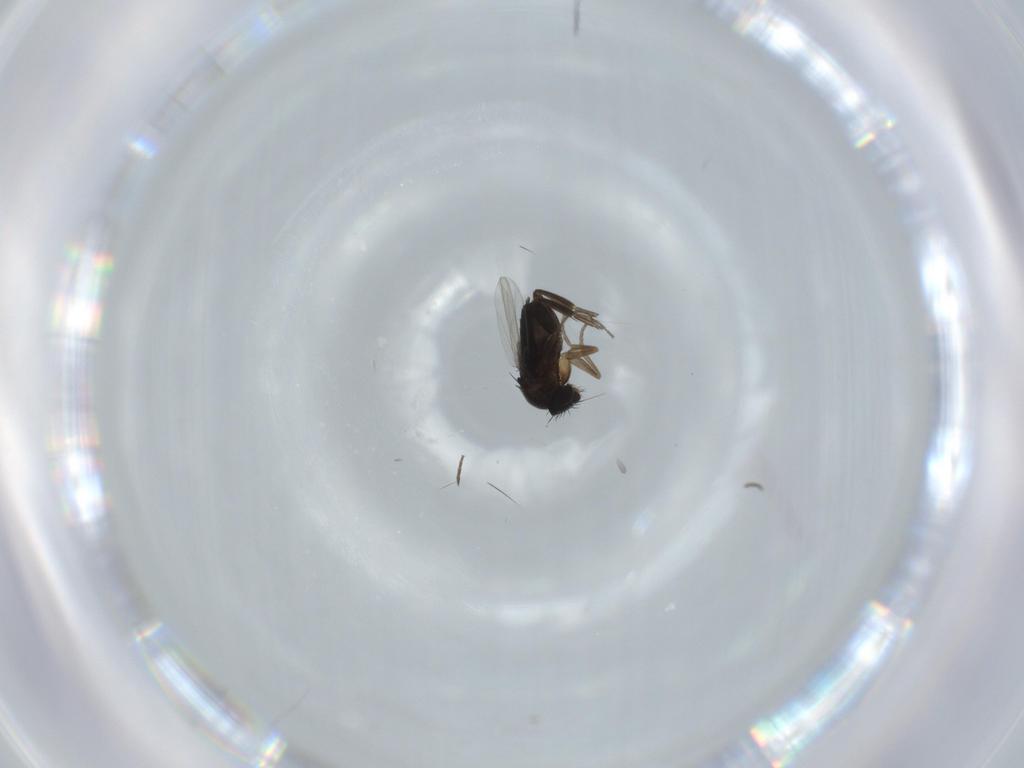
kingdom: Animalia
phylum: Arthropoda
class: Insecta
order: Diptera
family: Phoridae
